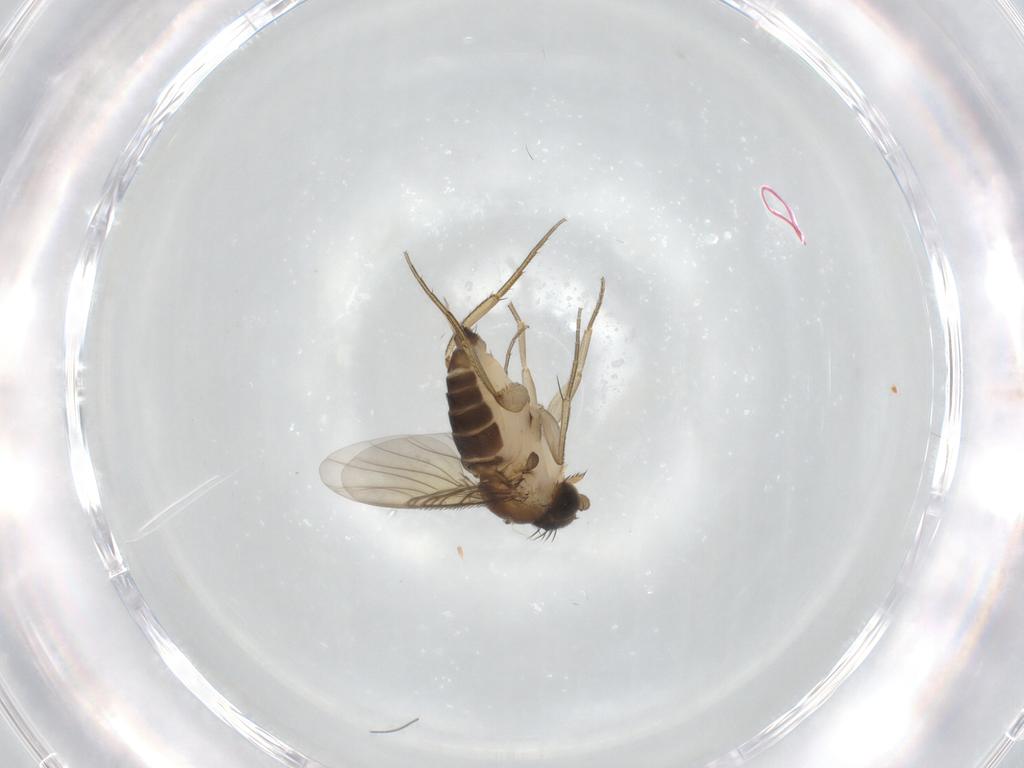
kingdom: Animalia
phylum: Arthropoda
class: Insecta
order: Diptera
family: Phoridae
